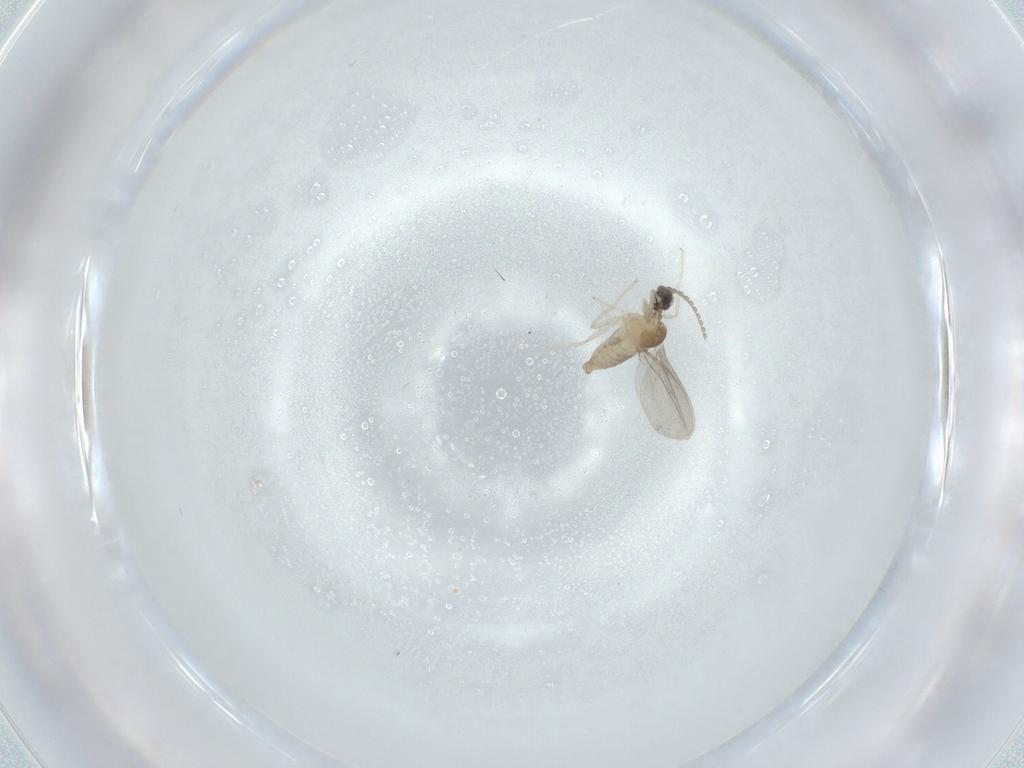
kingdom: Animalia
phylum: Arthropoda
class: Insecta
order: Diptera
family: Cecidomyiidae
